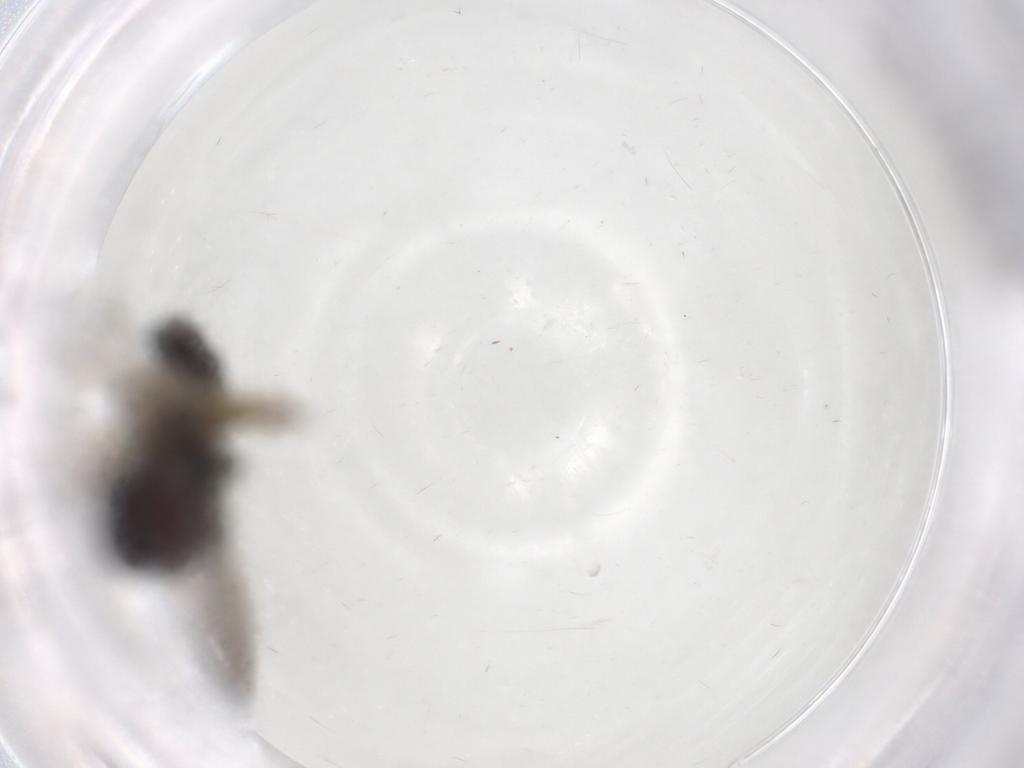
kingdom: Animalia
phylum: Arthropoda
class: Insecta
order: Diptera
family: Muscidae
